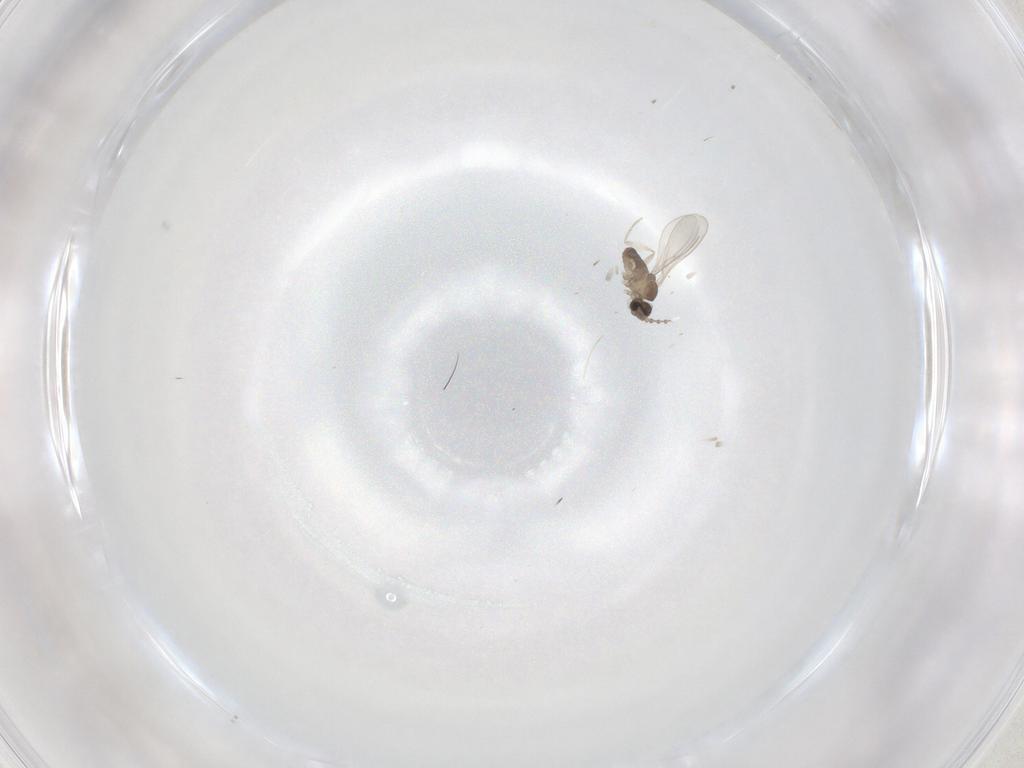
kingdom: Animalia
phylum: Arthropoda
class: Insecta
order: Diptera
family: Cecidomyiidae
